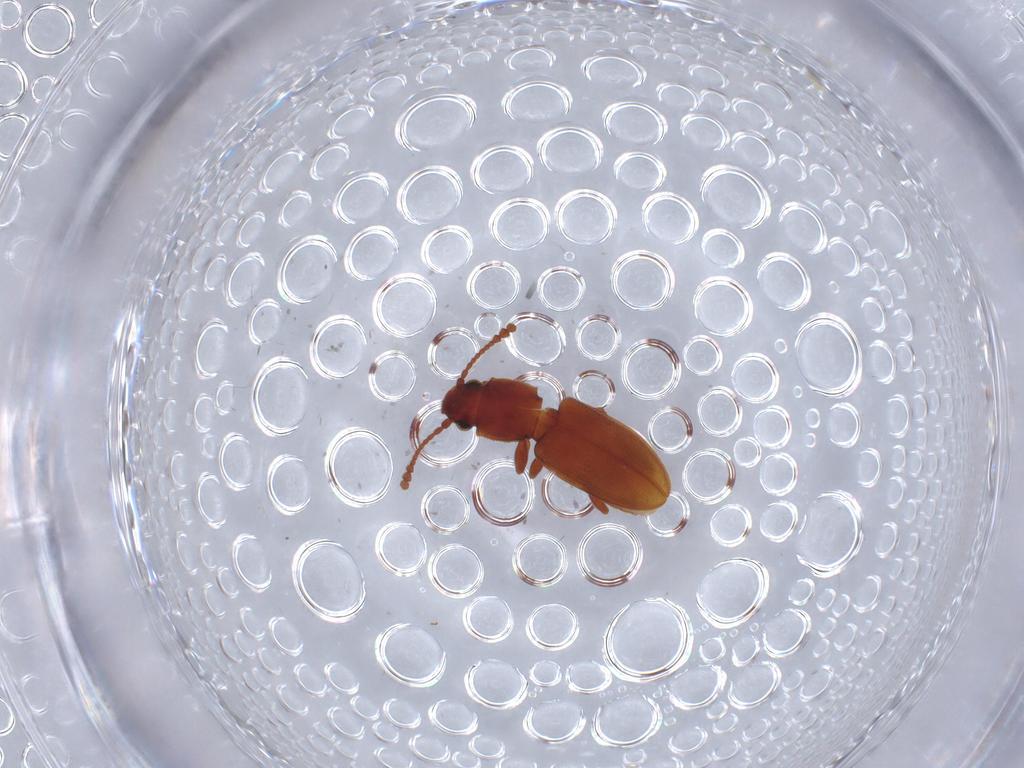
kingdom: Animalia
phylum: Arthropoda
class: Insecta
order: Coleoptera
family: Silvanidae
